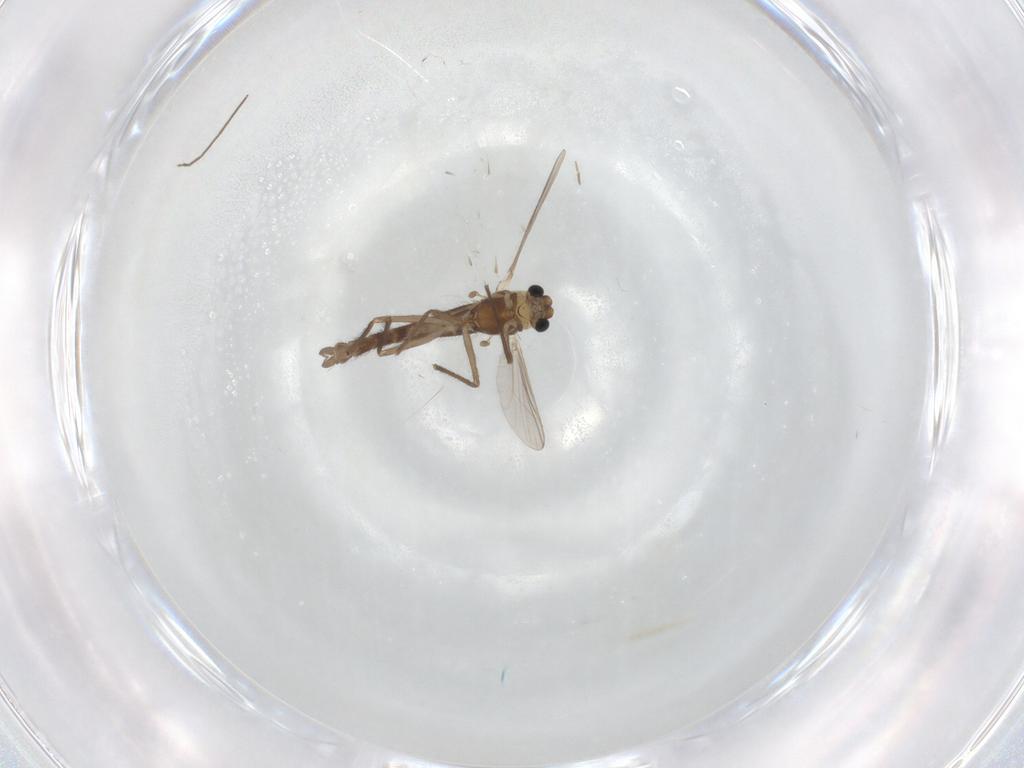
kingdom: Animalia
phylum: Arthropoda
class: Insecta
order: Diptera
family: Chironomidae
